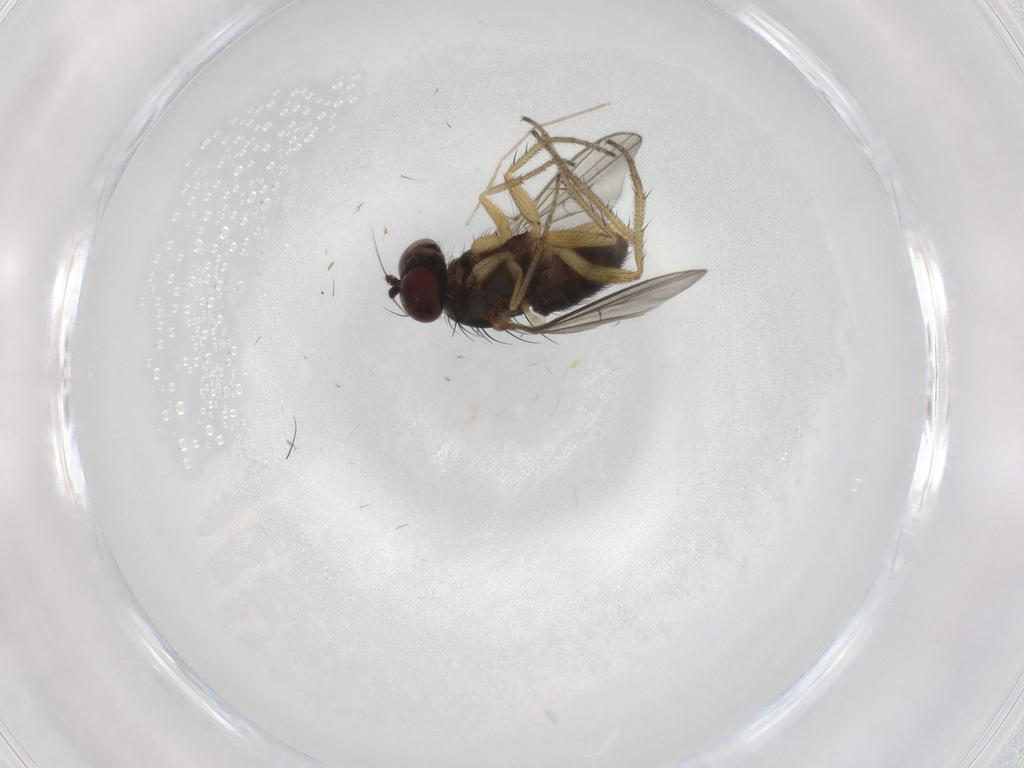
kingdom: Animalia
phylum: Arthropoda
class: Insecta
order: Diptera
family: Dolichopodidae
